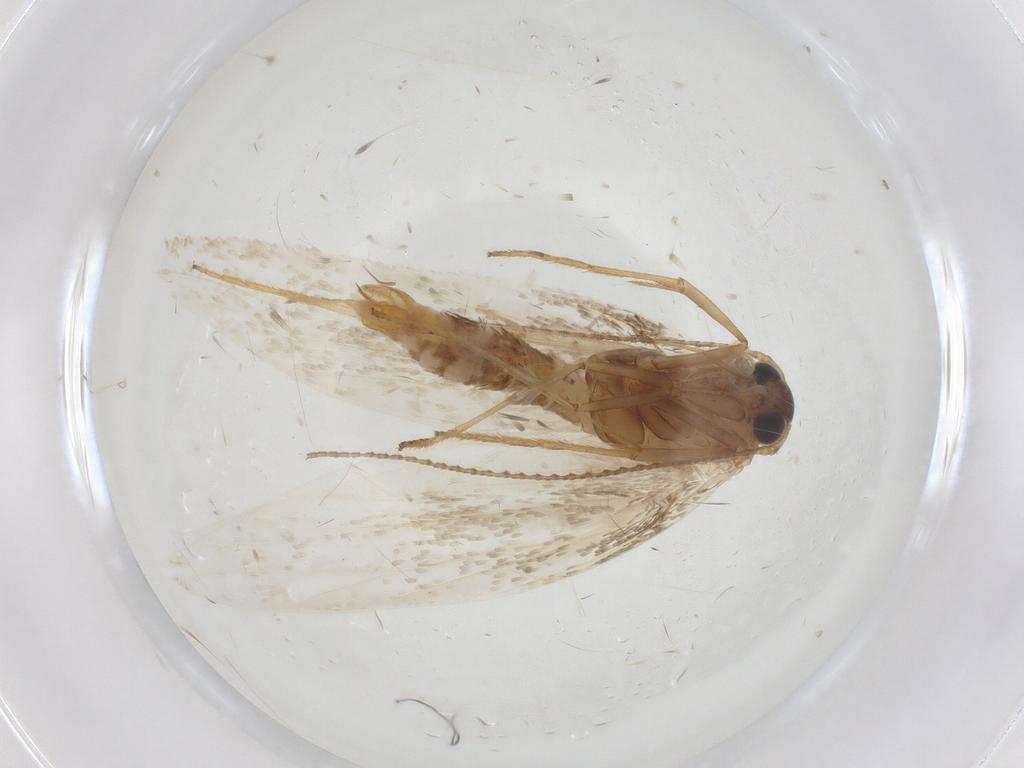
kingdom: Animalia
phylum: Arthropoda
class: Insecta
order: Lepidoptera
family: Erebidae
